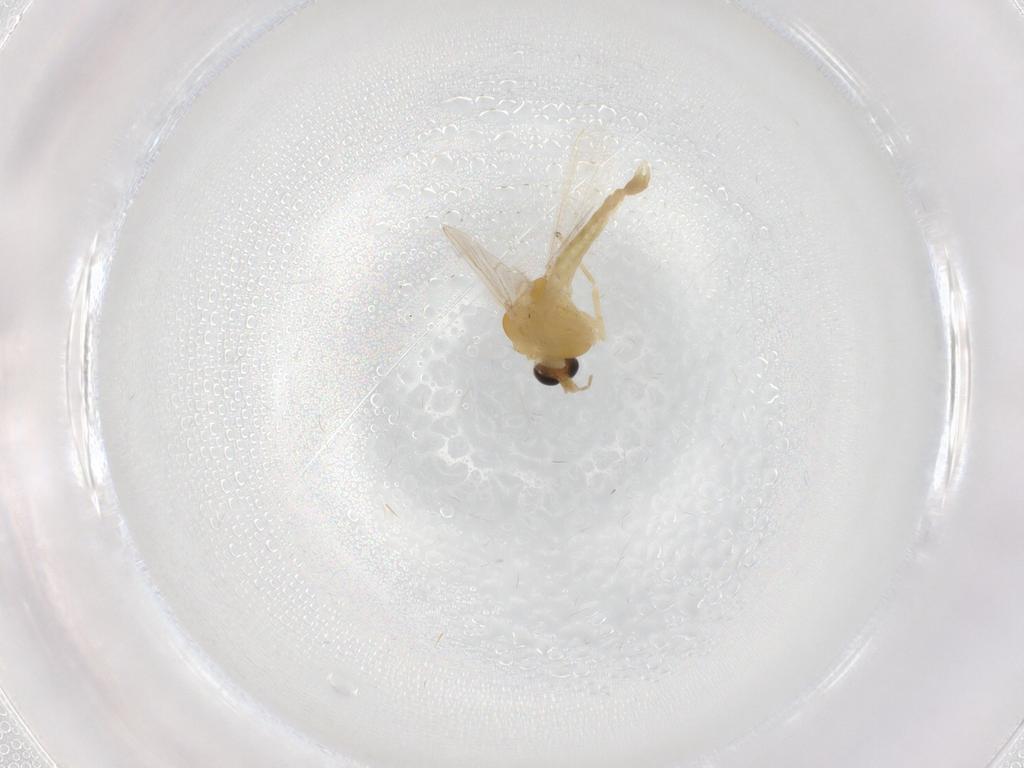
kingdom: Animalia
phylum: Arthropoda
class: Insecta
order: Diptera
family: Chironomidae
